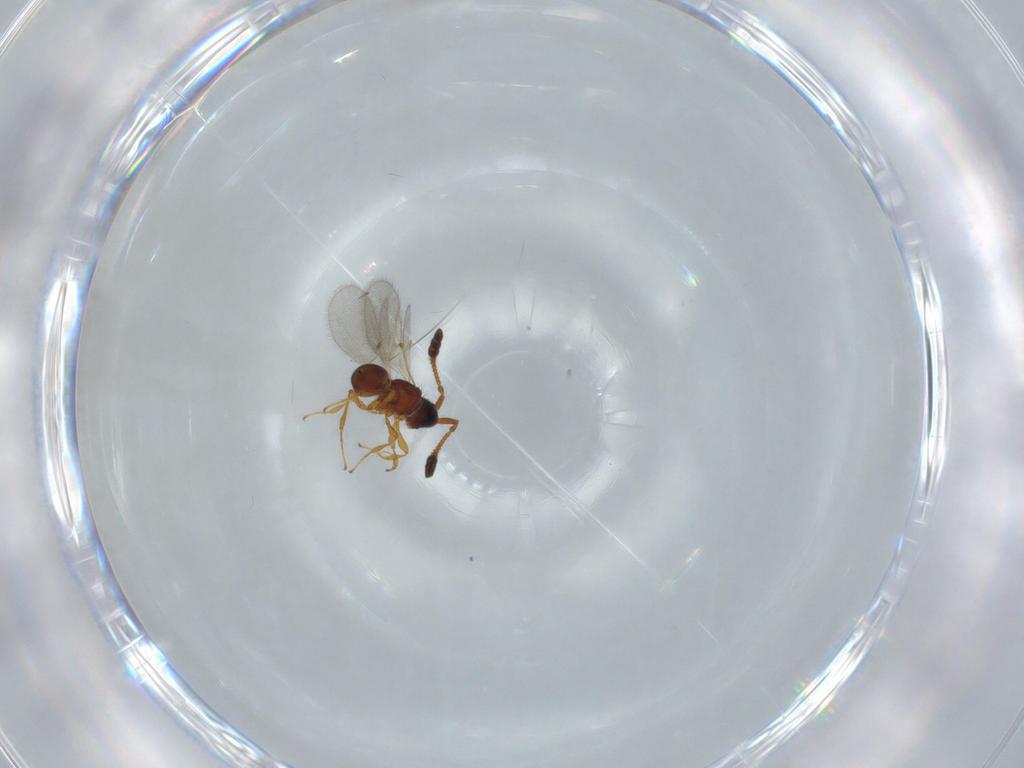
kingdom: Animalia
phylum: Arthropoda
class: Insecta
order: Hymenoptera
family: Diapriidae
